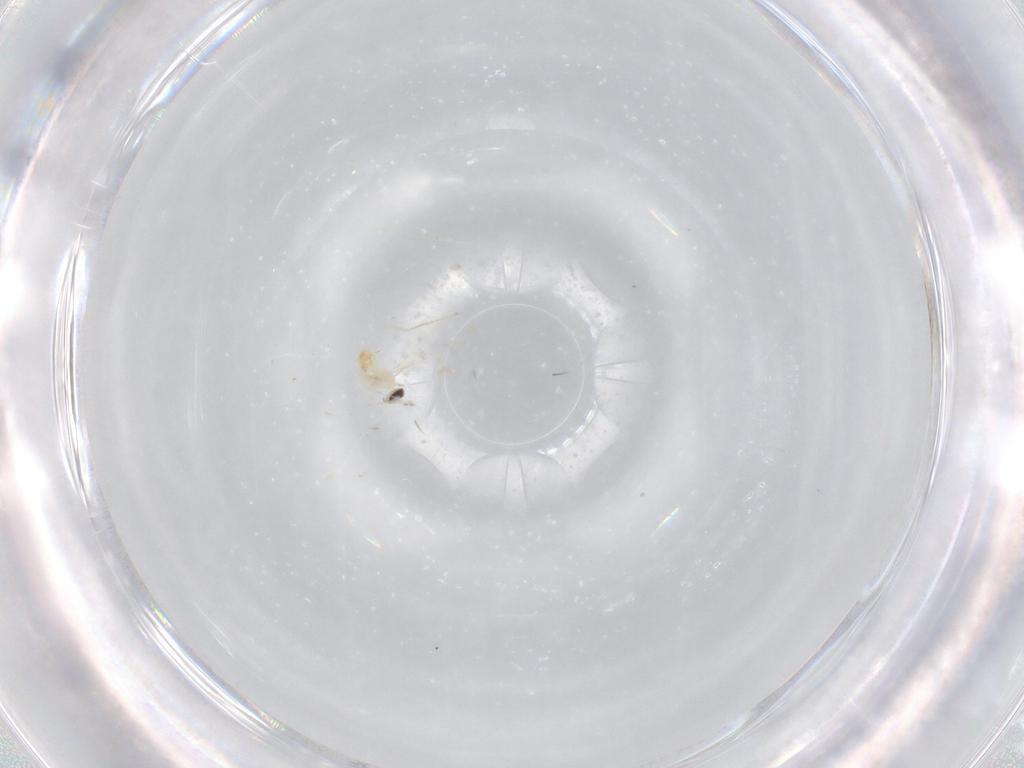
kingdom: Animalia
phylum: Arthropoda
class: Insecta
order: Diptera
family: Cecidomyiidae
